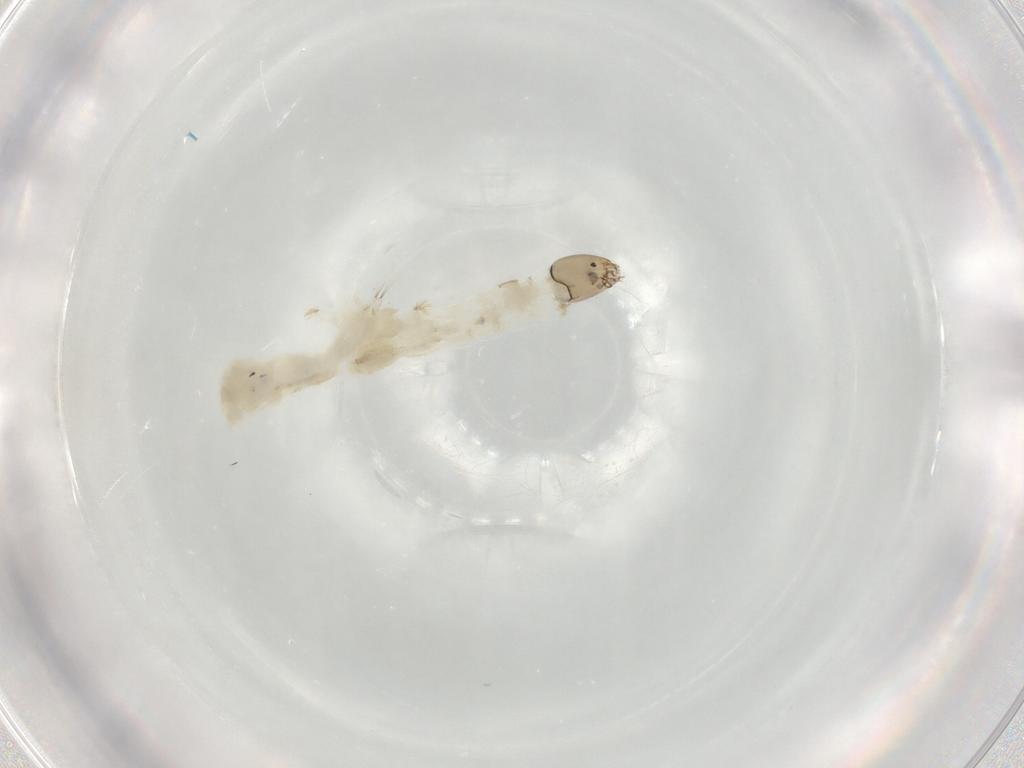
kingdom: Animalia
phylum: Arthropoda
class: Insecta
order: Diptera
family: Chironomidae
